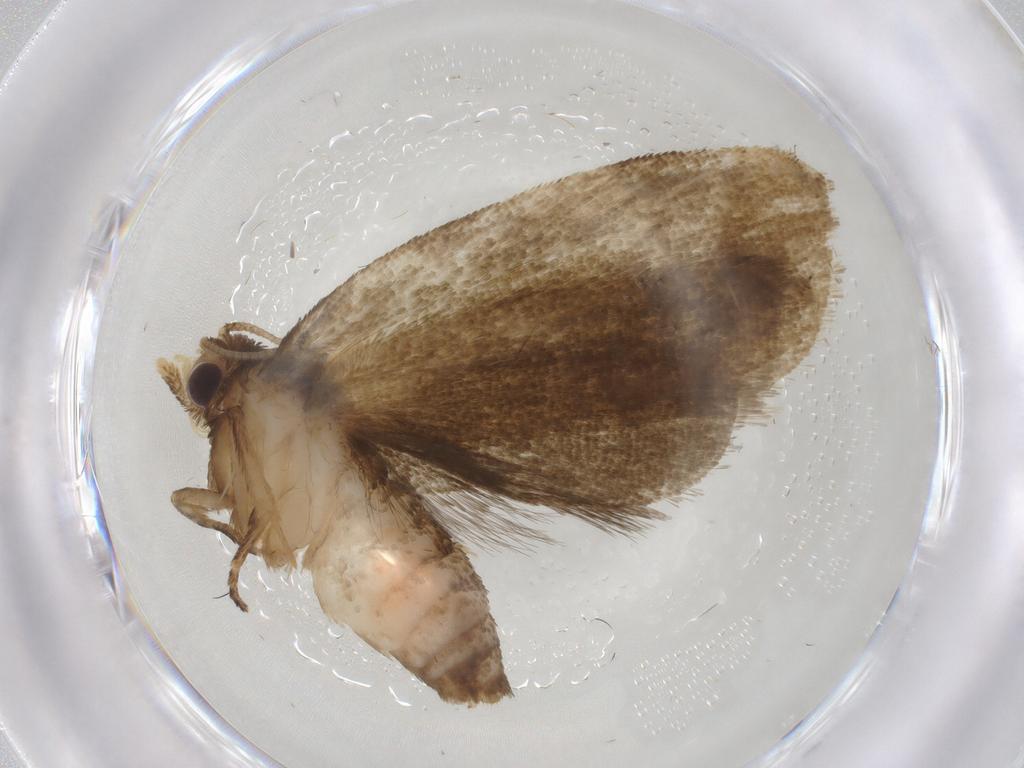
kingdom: Animalia
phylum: Arthropoda
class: Insecta
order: Lepidoptera
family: Tortricidae
